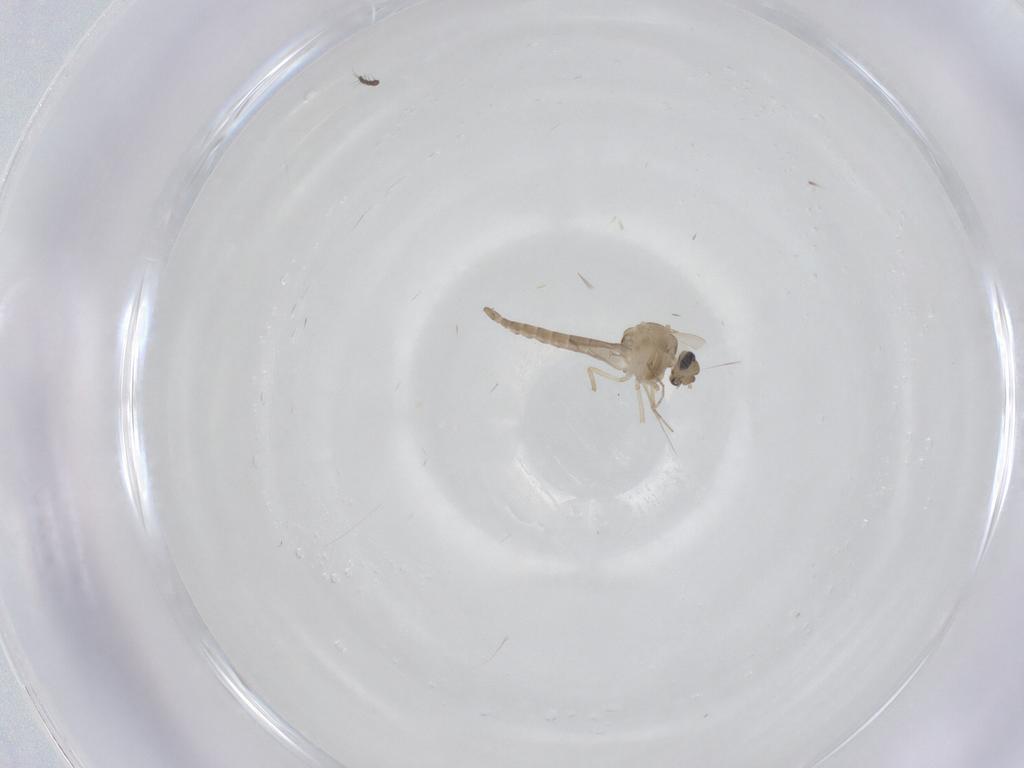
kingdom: Animalia
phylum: Arthropoda
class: Insecta
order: Diptera
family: Ceratopogonidae
